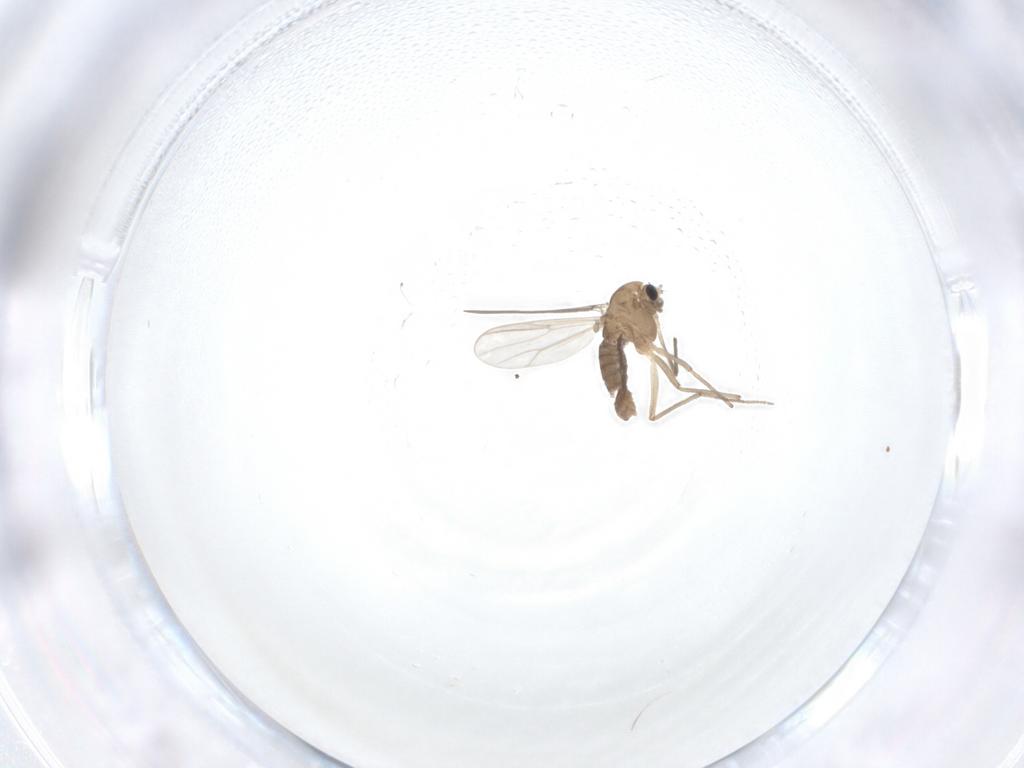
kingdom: Animalia
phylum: Arthropoda
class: Insecta
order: Diptera
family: Chironomidae
